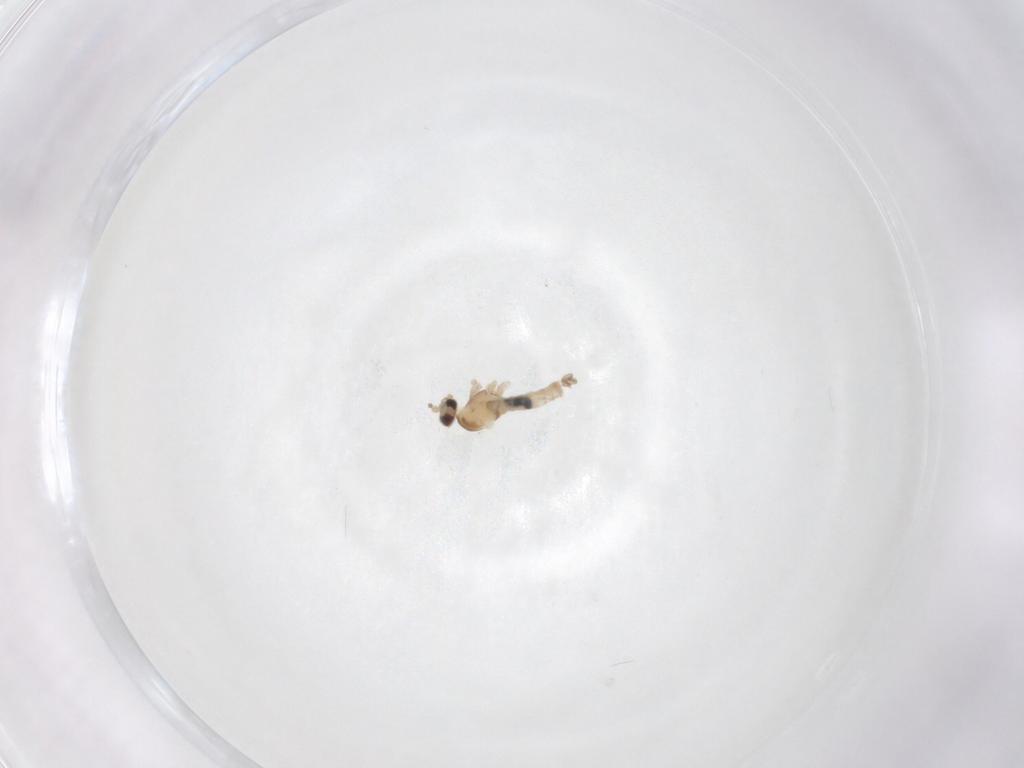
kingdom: Animalia
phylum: Arthropoda
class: Insecta
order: Diptera
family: Cecidomyiidae
